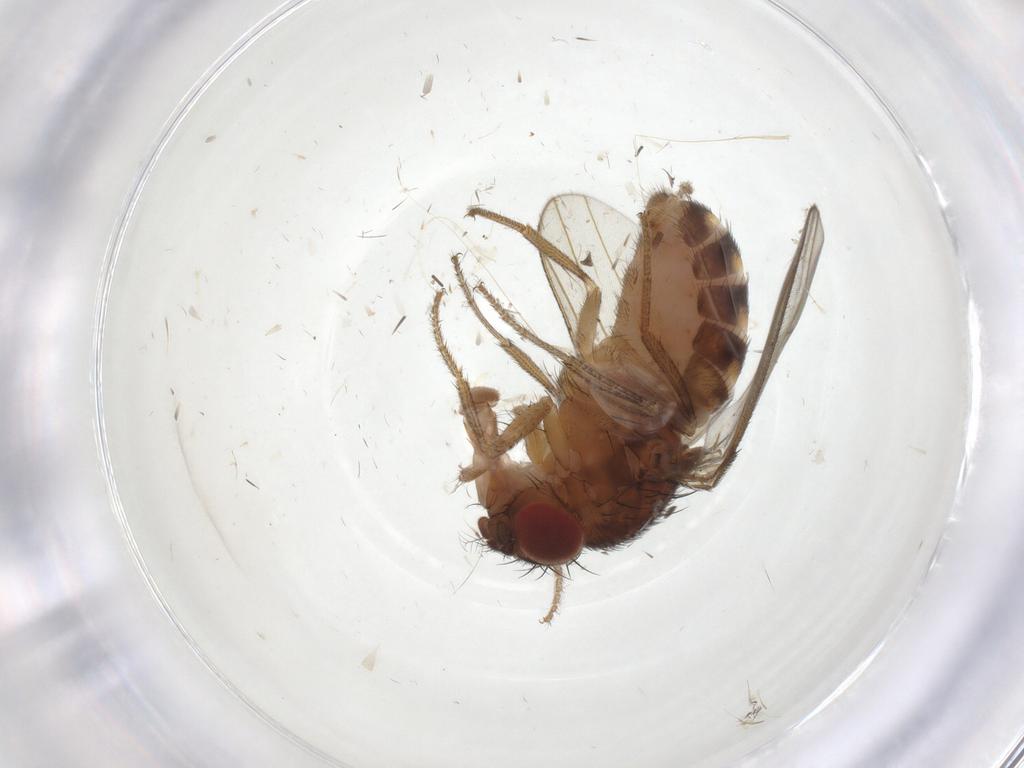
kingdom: Animalia
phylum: Arthropoda
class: Insecta
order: Diptera
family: Drosophilidae
